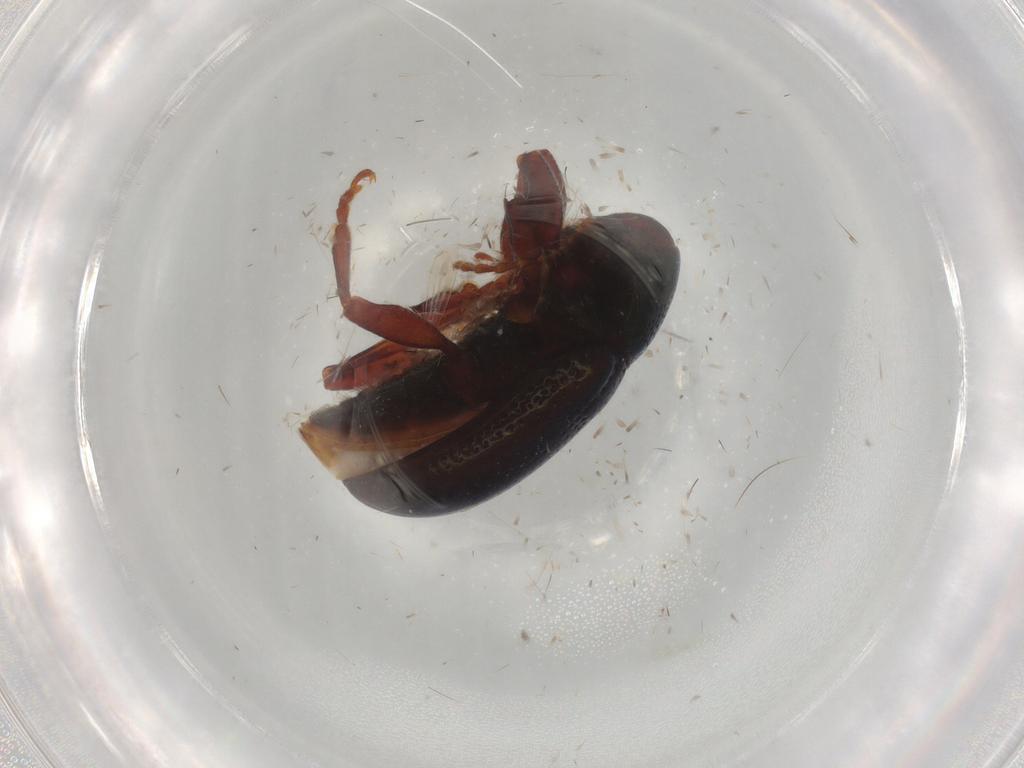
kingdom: Animalia
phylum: Arthropoda
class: Insecta
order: Coleoptera
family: Chrysomelidae
